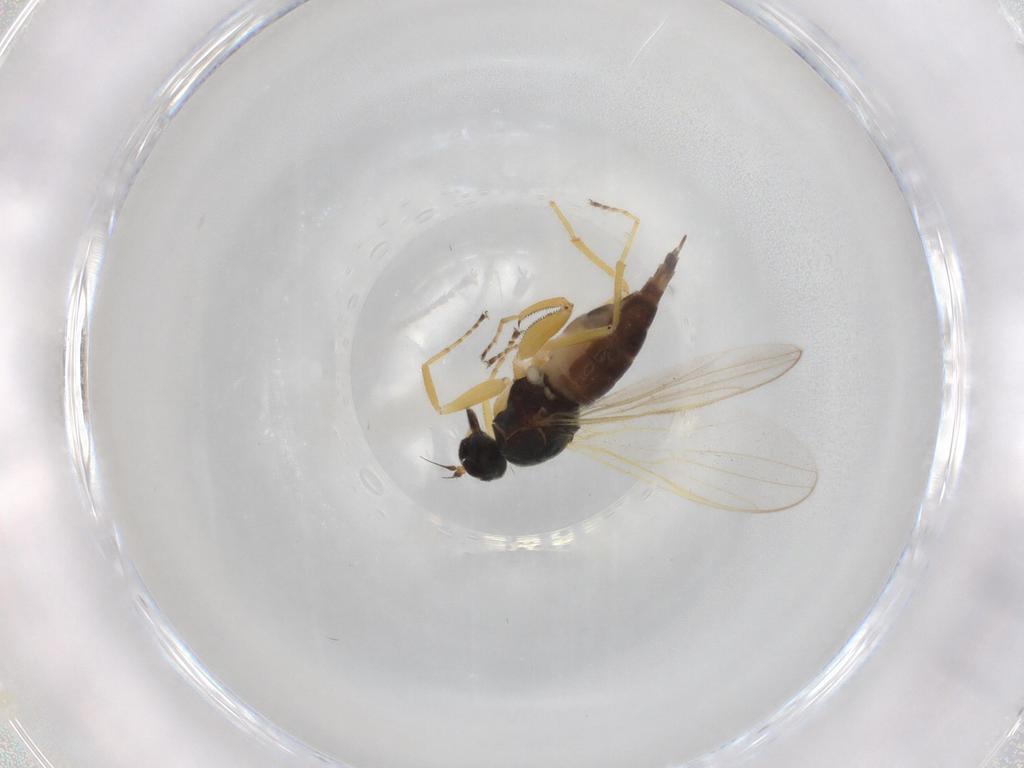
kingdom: Animalia
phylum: Arthropoda
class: Insecta
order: Diptera
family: Hybotidae
